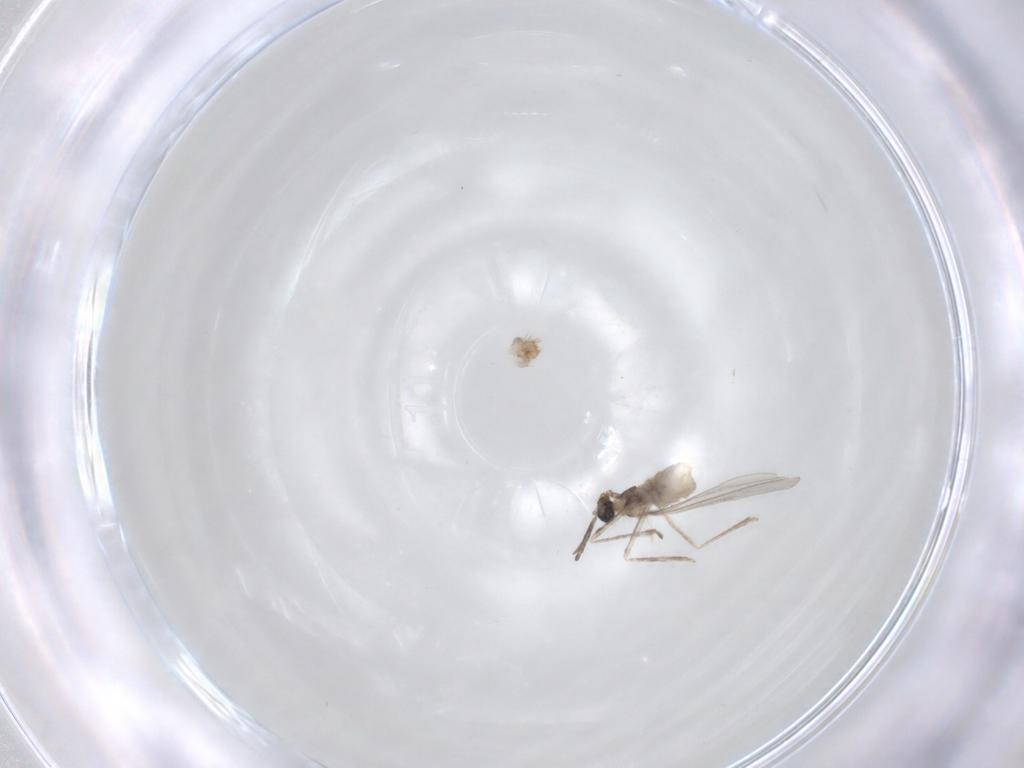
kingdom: Animalia
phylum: Arthropoda
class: Insecta
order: Diptera
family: Cecidomyiidae
